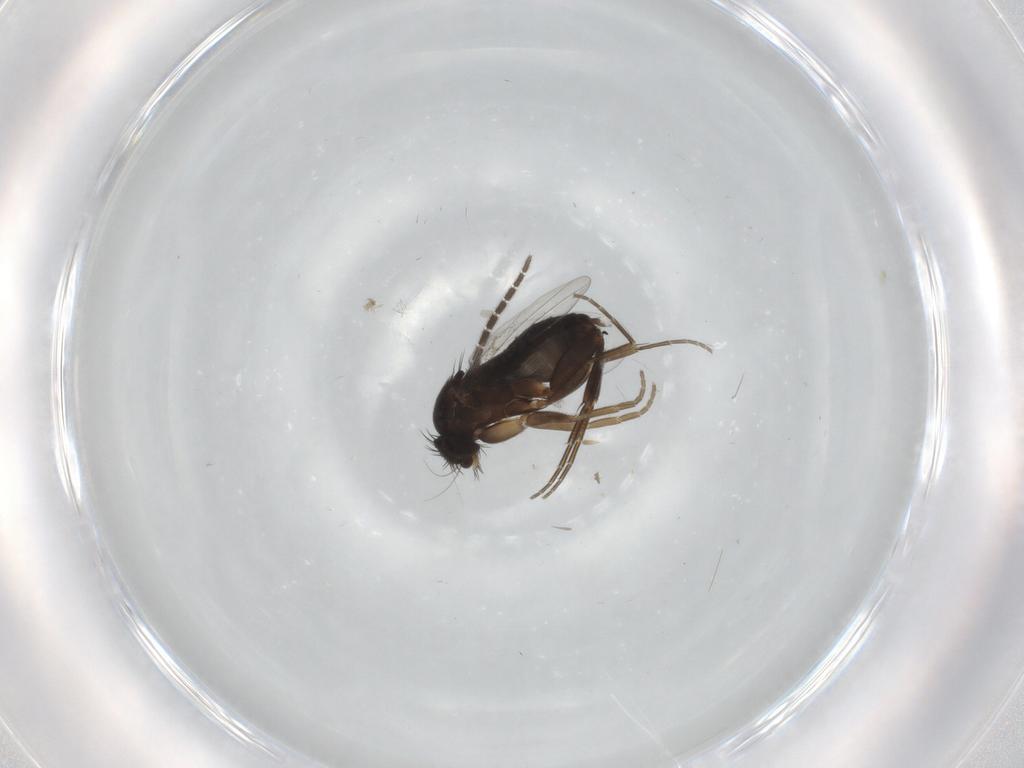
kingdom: Animalia
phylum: Arthropoda
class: Insecta
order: Diptera
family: Phoridae
